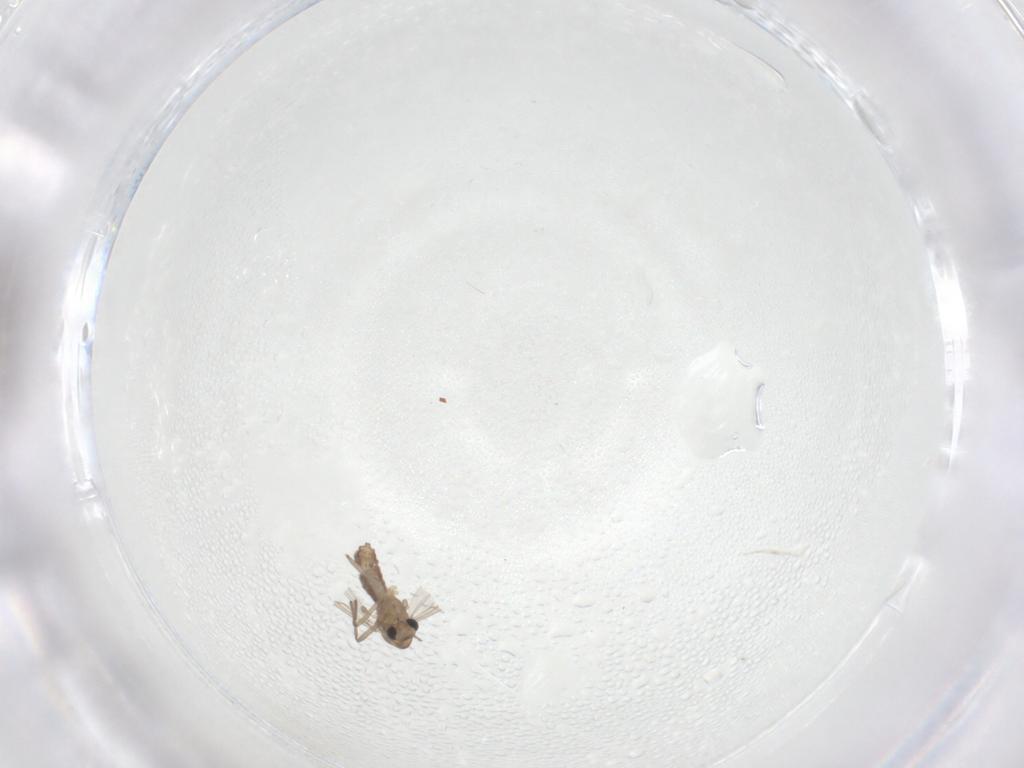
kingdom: Animalia
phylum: Arthropoda
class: Insecta
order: Diptera
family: Chironomidae
